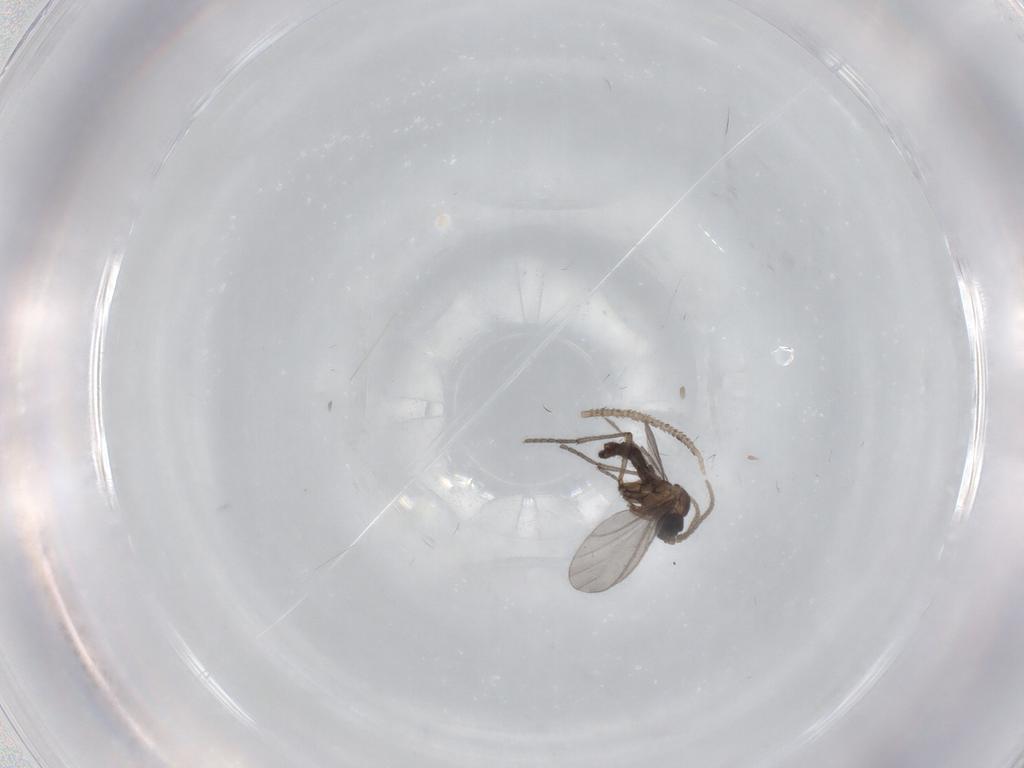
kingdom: Animalia
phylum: Arthropoda
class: Insecta
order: Diptera
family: Sciaridae
